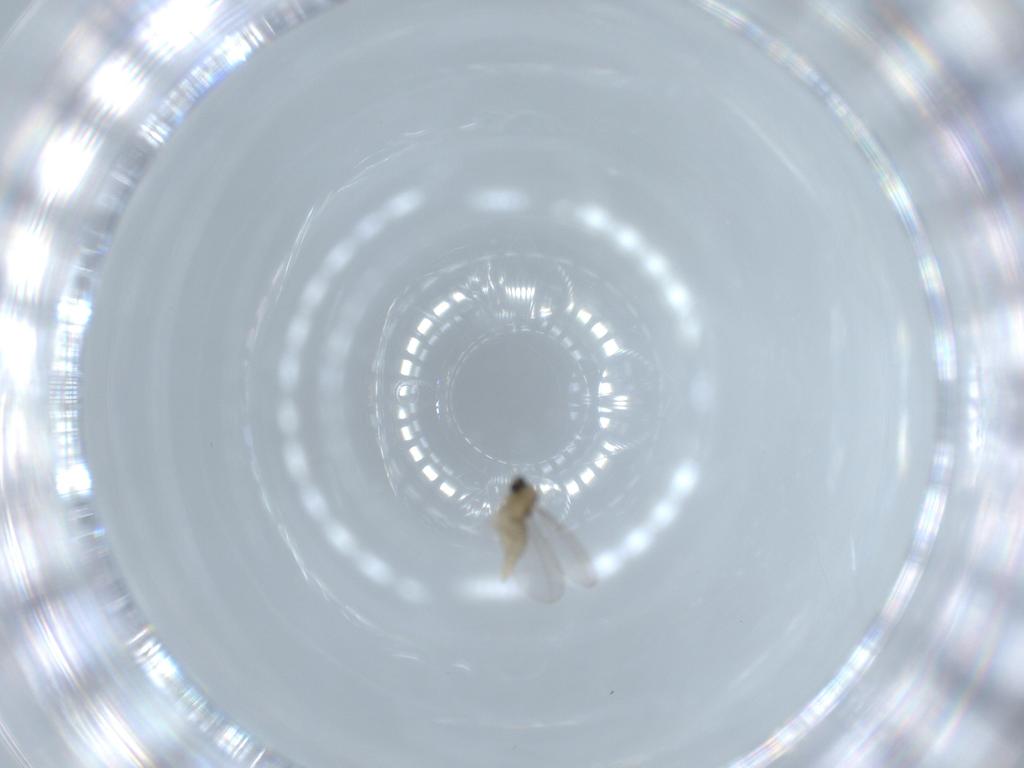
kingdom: Animalia
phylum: Arthropoda
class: Insecta
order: Diptera
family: Cecidomyiidae
